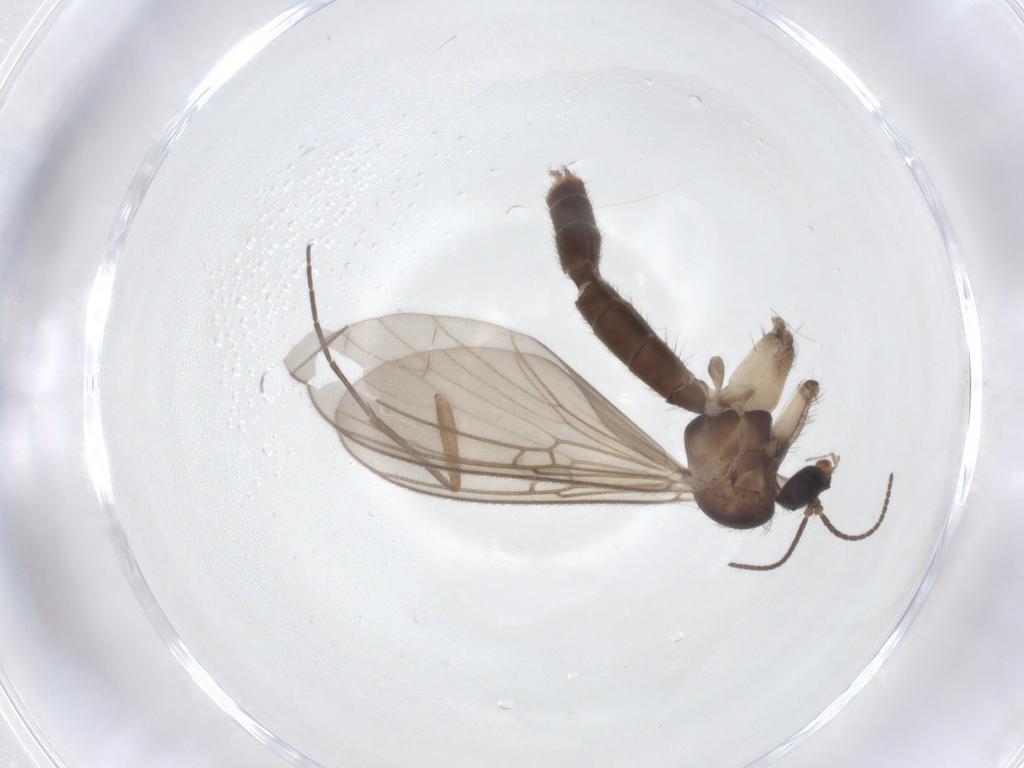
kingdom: Animalia
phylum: Arthropoda
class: Insecta
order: Diptera
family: Mycetophilidae
